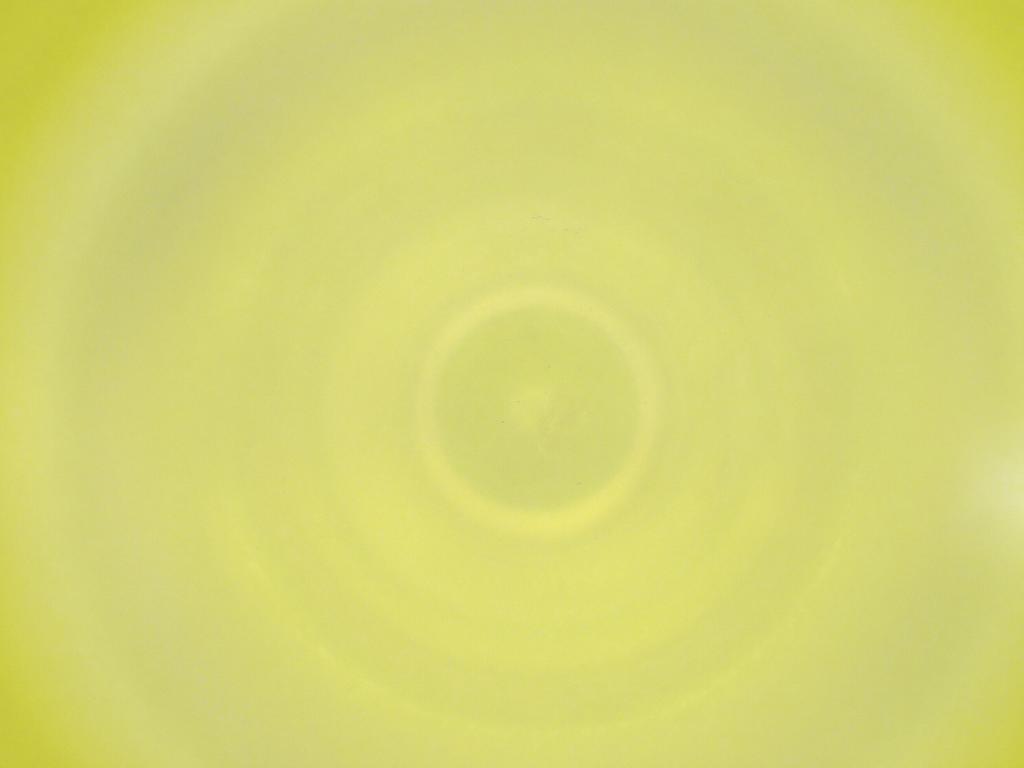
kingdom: Animalia
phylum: Arthropoda
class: Insecta
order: Diptera
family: Cecidomyiidae
